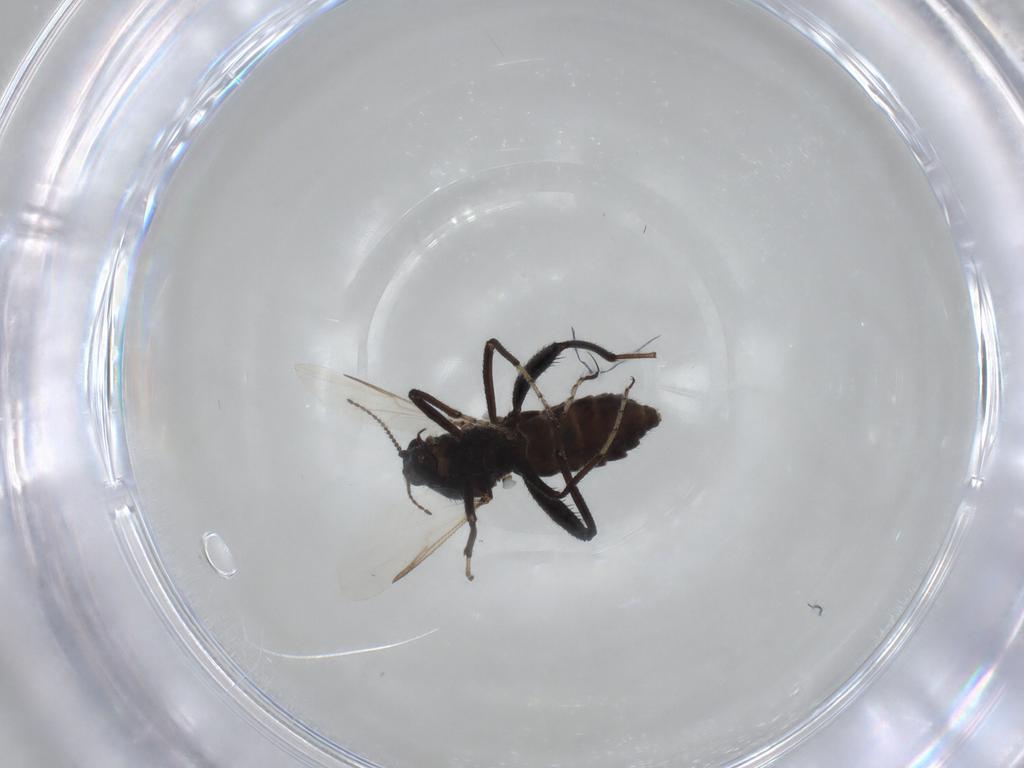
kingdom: Animalia
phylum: Arthropoda
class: Insecta
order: Diptera
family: Ceratopogonidae
